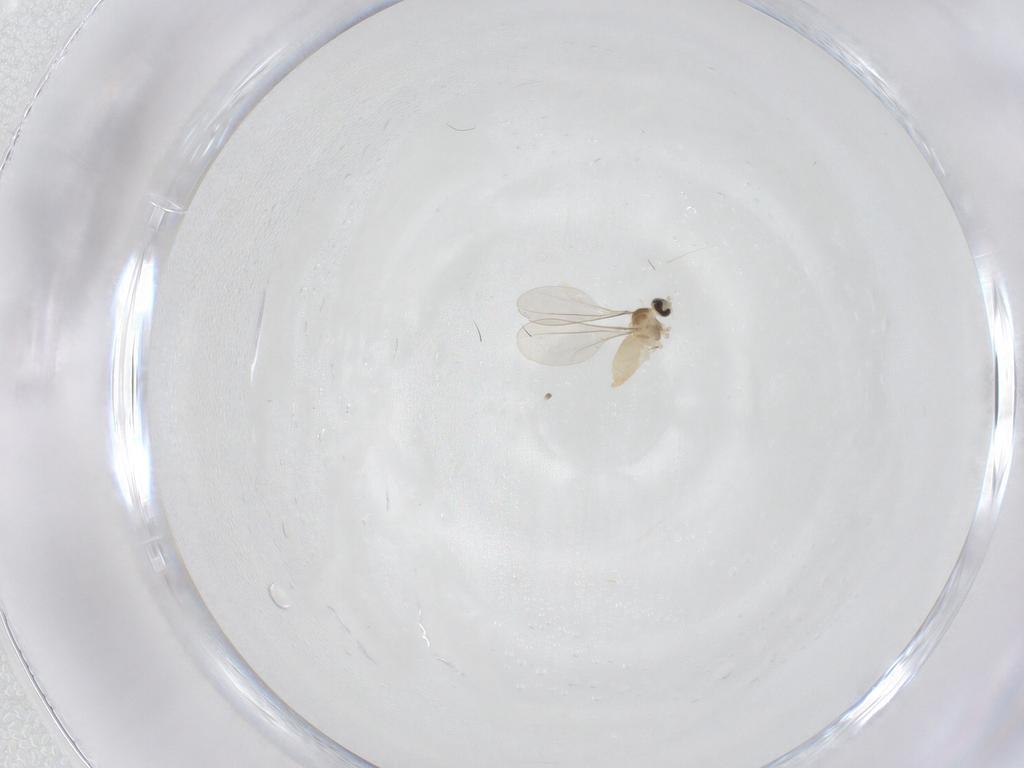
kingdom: Animalia
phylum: Arthropoda
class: Insecta
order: Diptera
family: Cecidomyiidae
